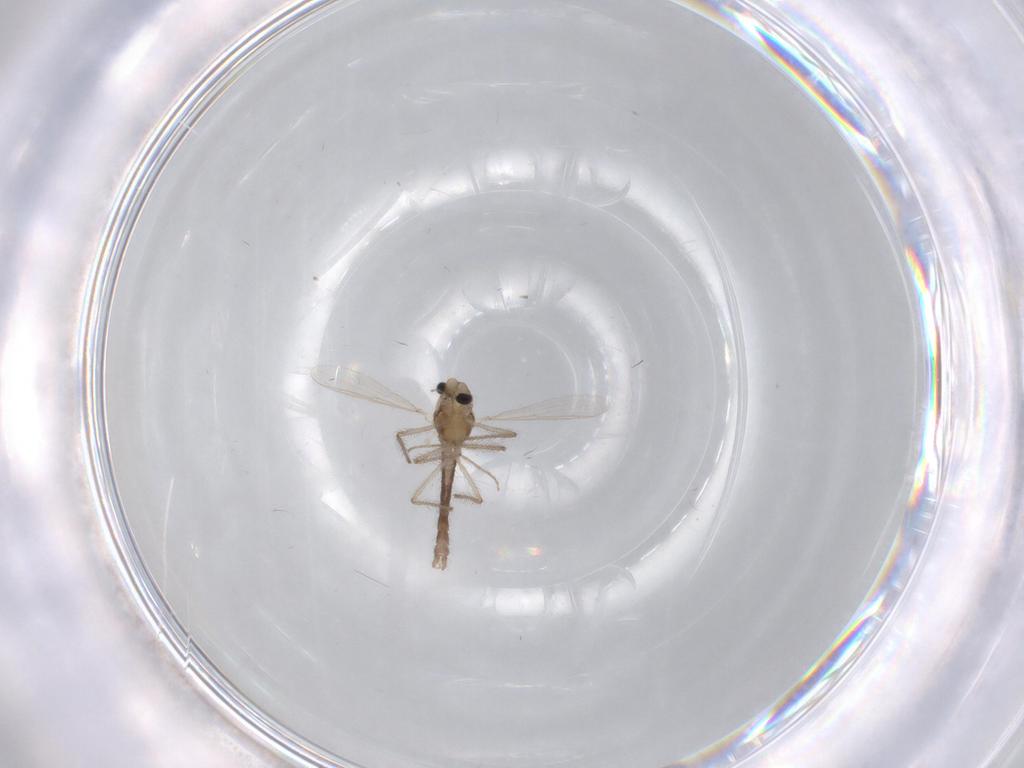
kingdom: Animalia
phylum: Arthropoda
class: Insecta
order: Diptera
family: Chironomidae
